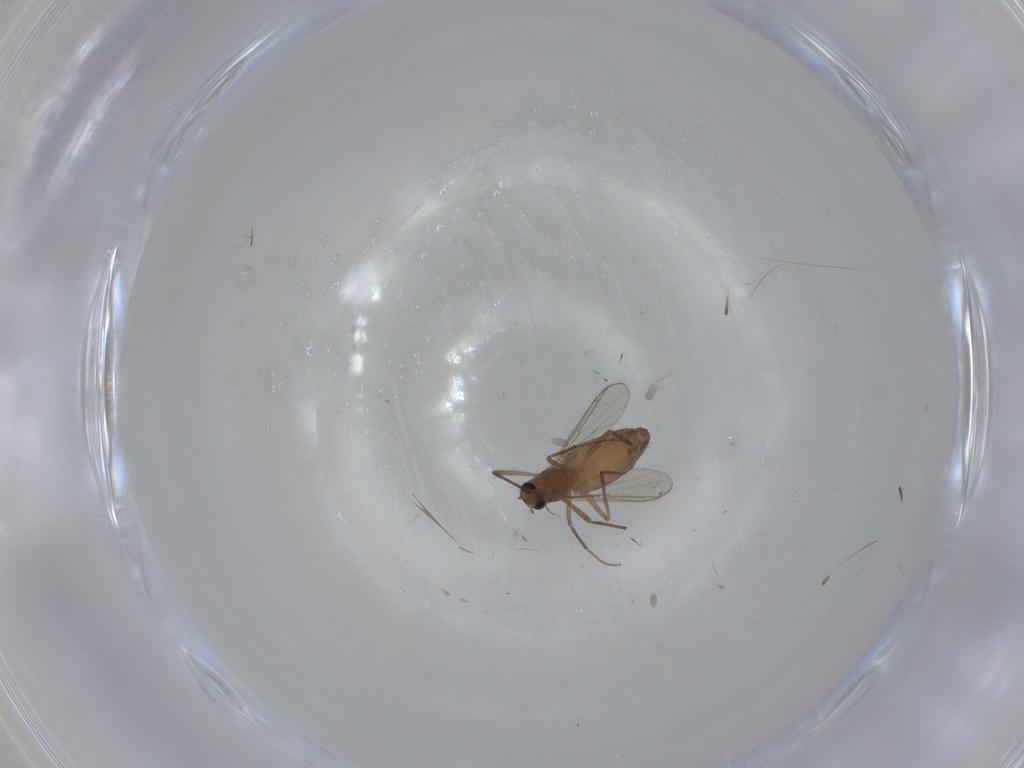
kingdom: Animalia
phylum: Arthropoda
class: Insecta
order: Diptera
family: Chironomidae
